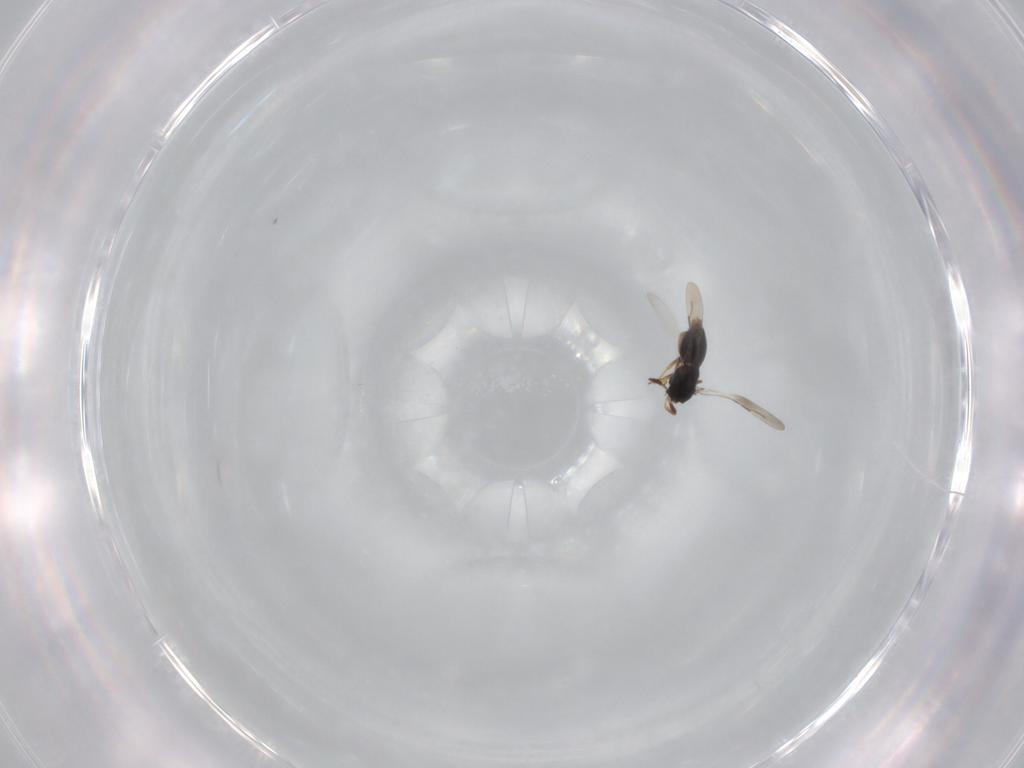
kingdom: Animalia
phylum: Arthropoda
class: Insecta
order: Hymenoptera
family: Ceraphronidae
